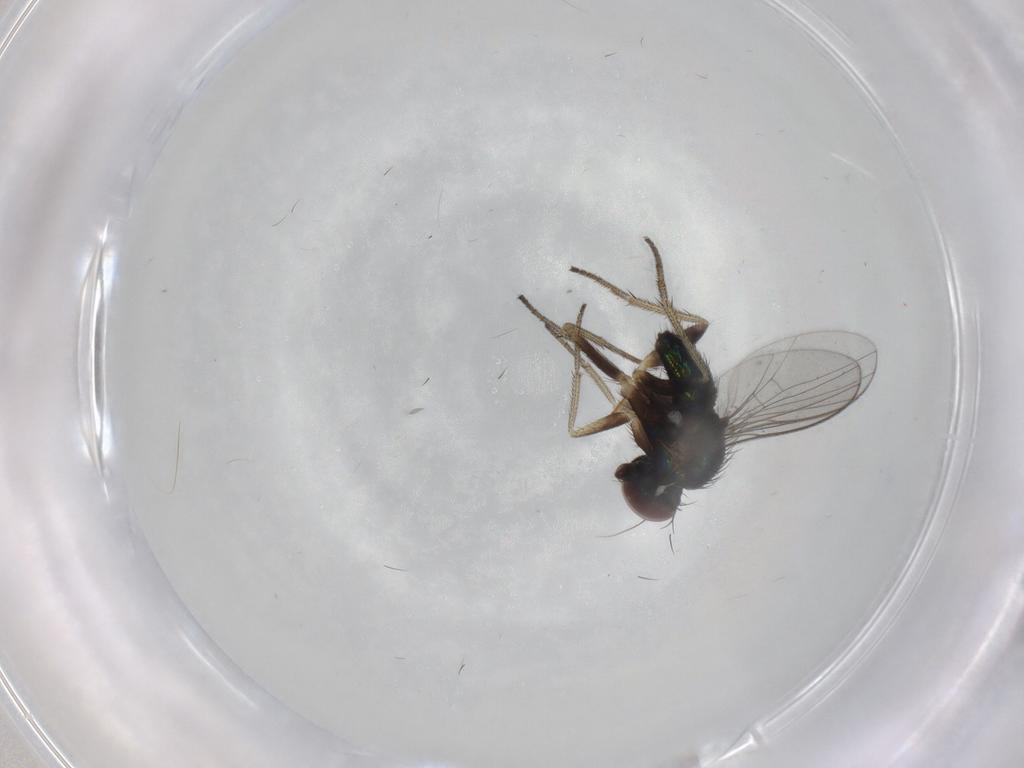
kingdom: Animalia
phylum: Arthropoda
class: Insecta
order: Diptera
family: Dolichopodidae
